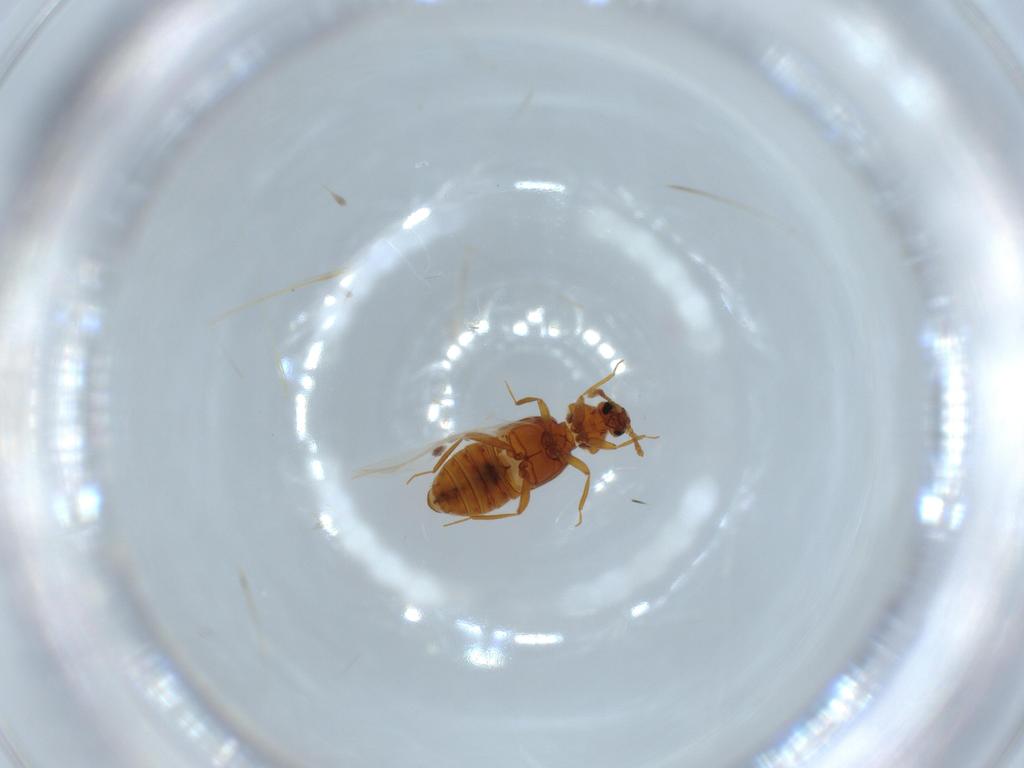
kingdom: Animalia
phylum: Arthropoda
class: Insecta
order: Coleoptera
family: Staphylinidae
